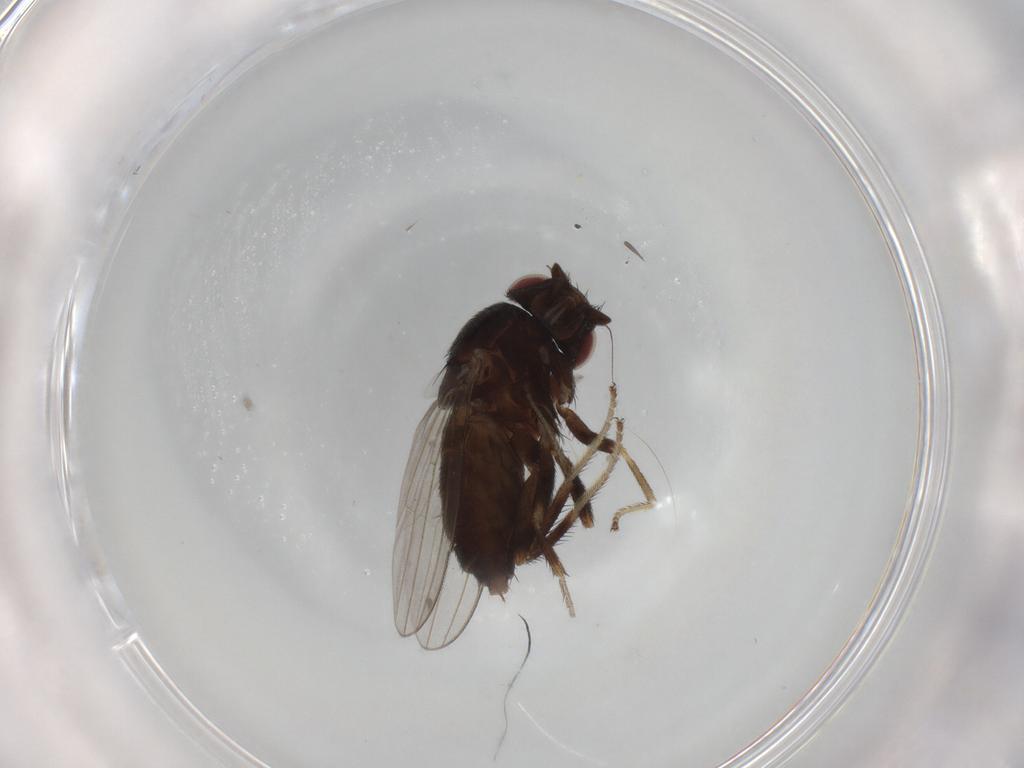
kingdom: Animalia
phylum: Arthropoda
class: Insecta
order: Diptera
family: Milichiidae
